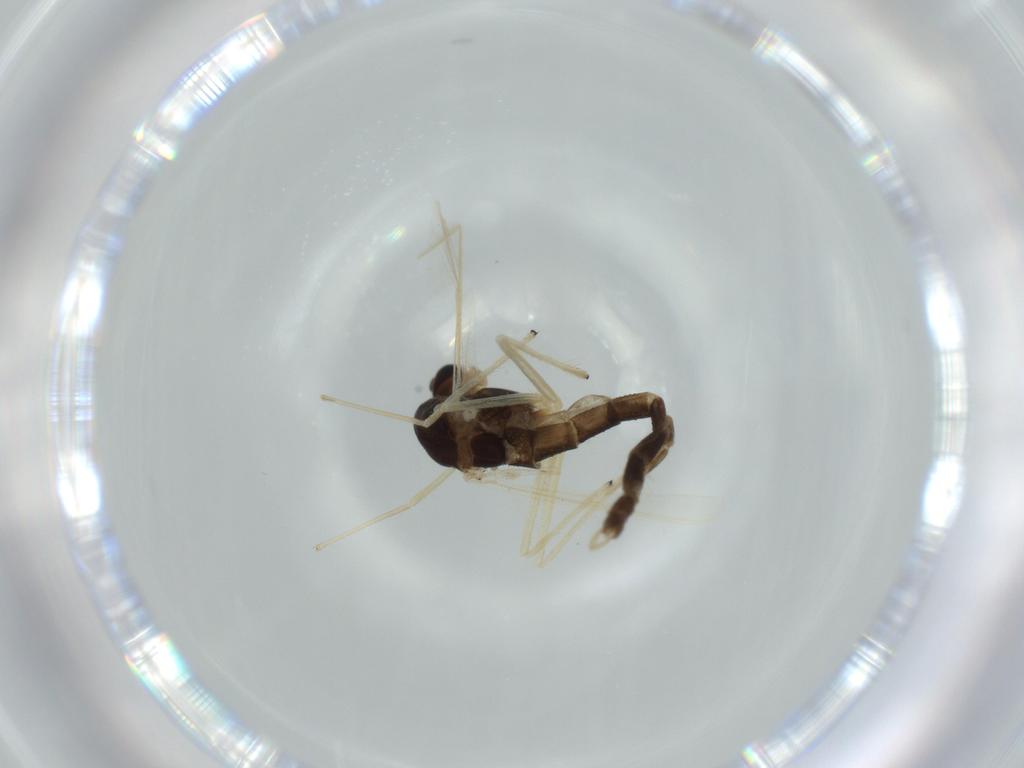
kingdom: Animalia
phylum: Arthropoda
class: Insecta
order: Diptera
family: Chironomidae
